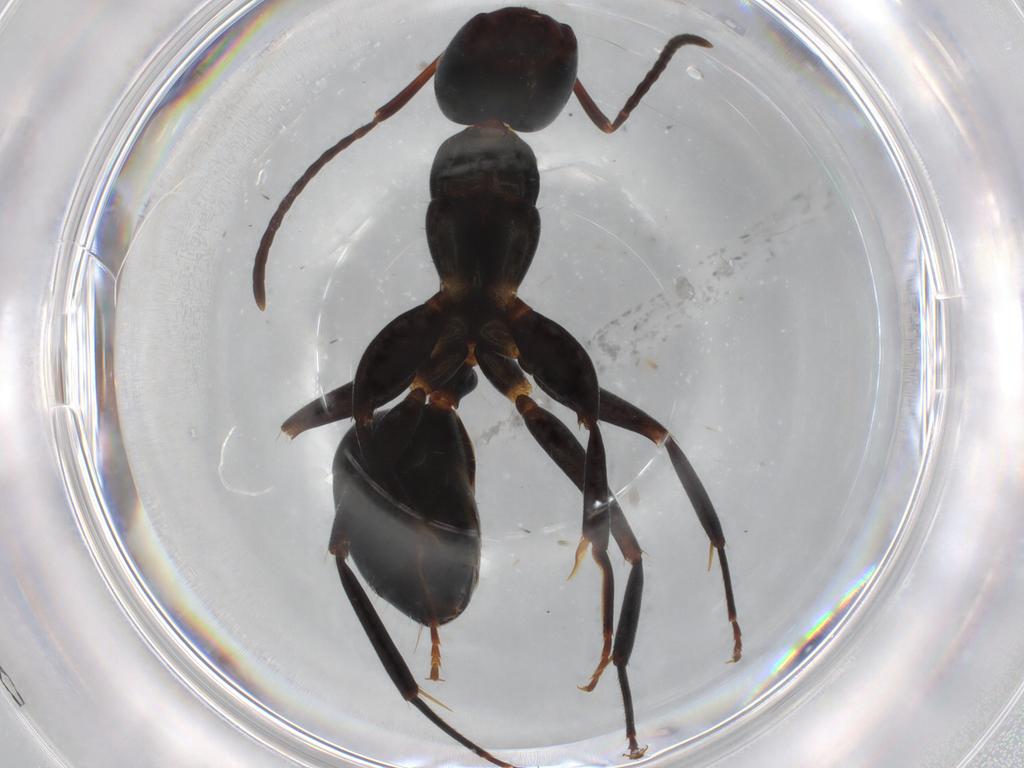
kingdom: Animalia
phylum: Arthropoda
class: Insecta
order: Hymenoptera
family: Formicidae
